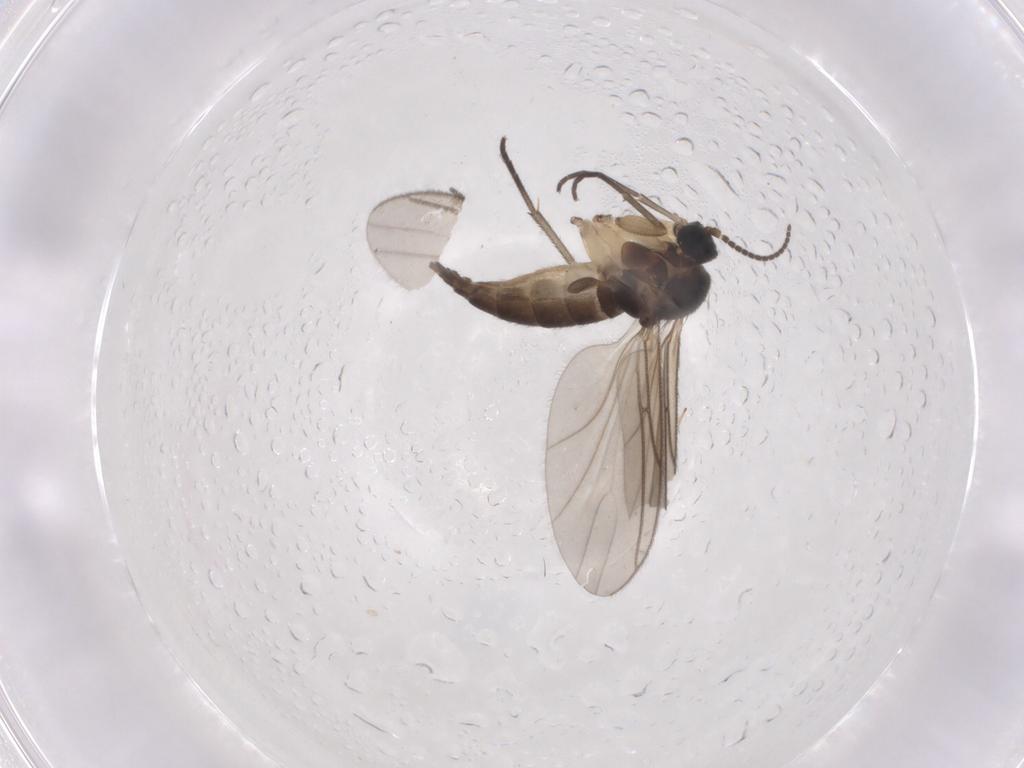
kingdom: Animalia
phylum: Arthropoda
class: Insecta
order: Diptera
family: Sciaridae
